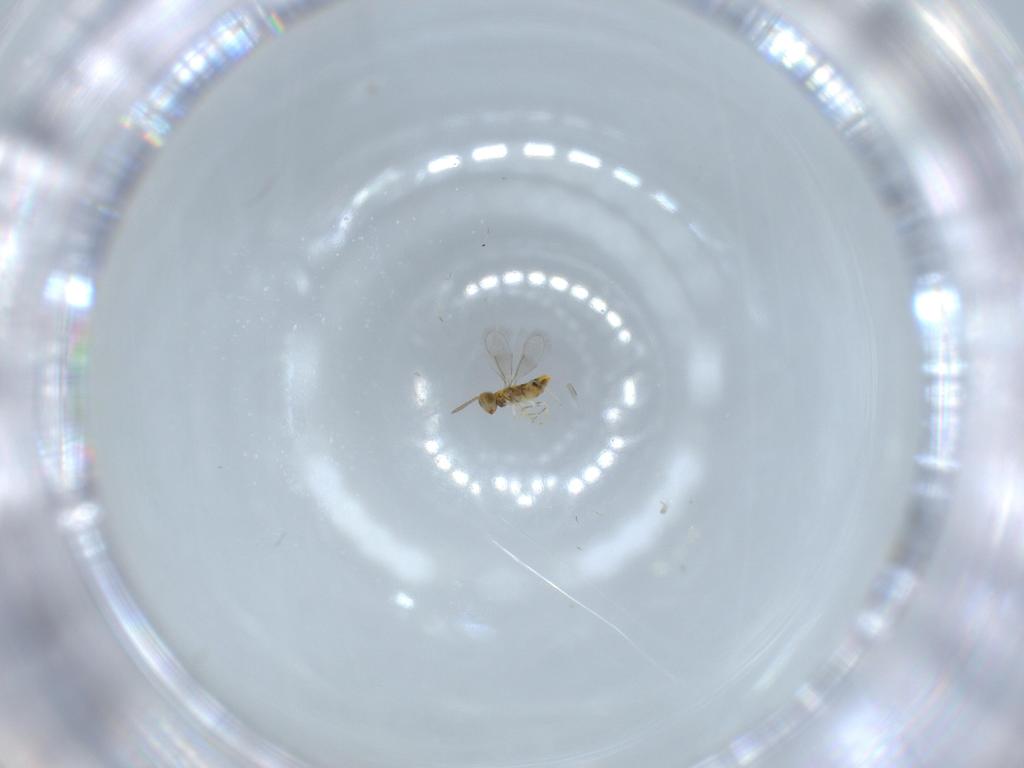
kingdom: Animalia
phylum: Arthropoda
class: Insecta
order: Hymenoptera
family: Aphelinidae
